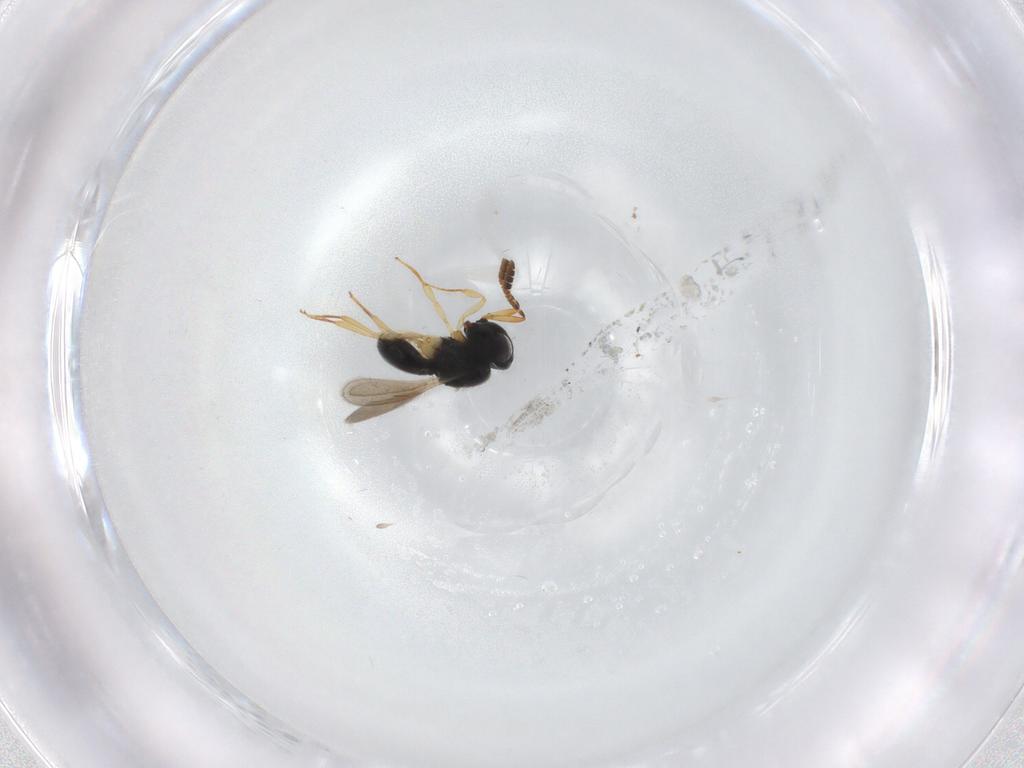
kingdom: Animalia
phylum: Arthropoda
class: Insecta
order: Hymenoptera
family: Scelionidae
